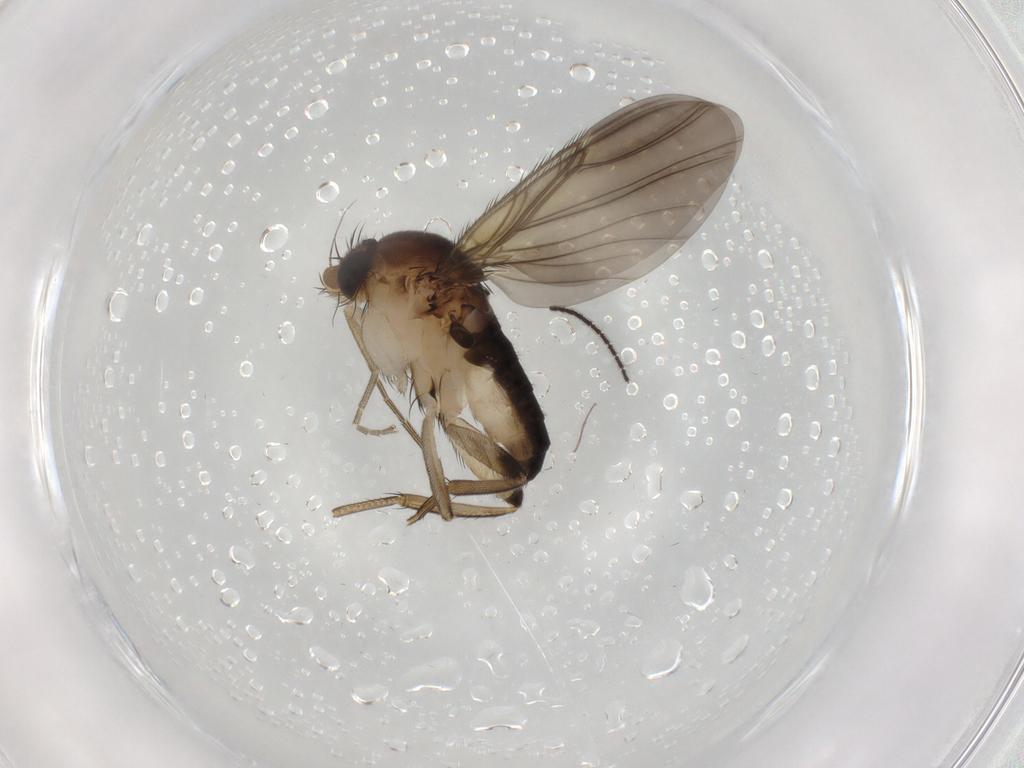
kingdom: Animalia
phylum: Arthropoda
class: Insecta
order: Diptera
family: Phoridae
